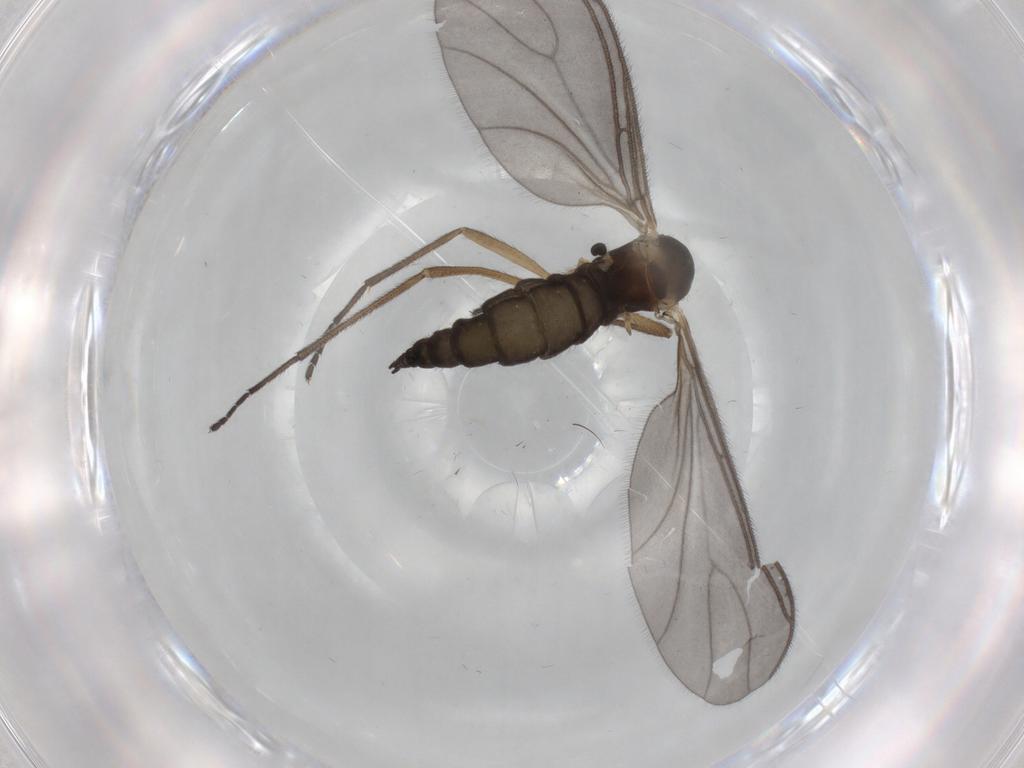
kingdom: Animalia
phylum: Arthropoda
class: Insecta
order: Diptera
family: Sciaridae
